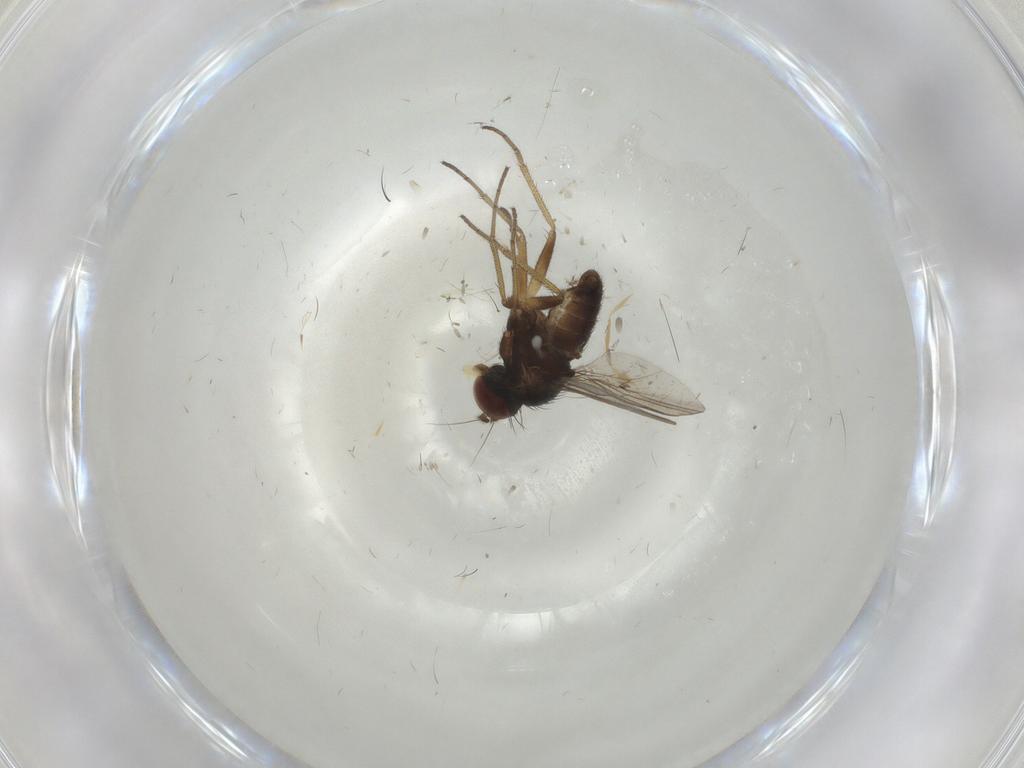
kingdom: Animalia
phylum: Arthropoda
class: Insecta
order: Diptera
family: Dolichopodidae
